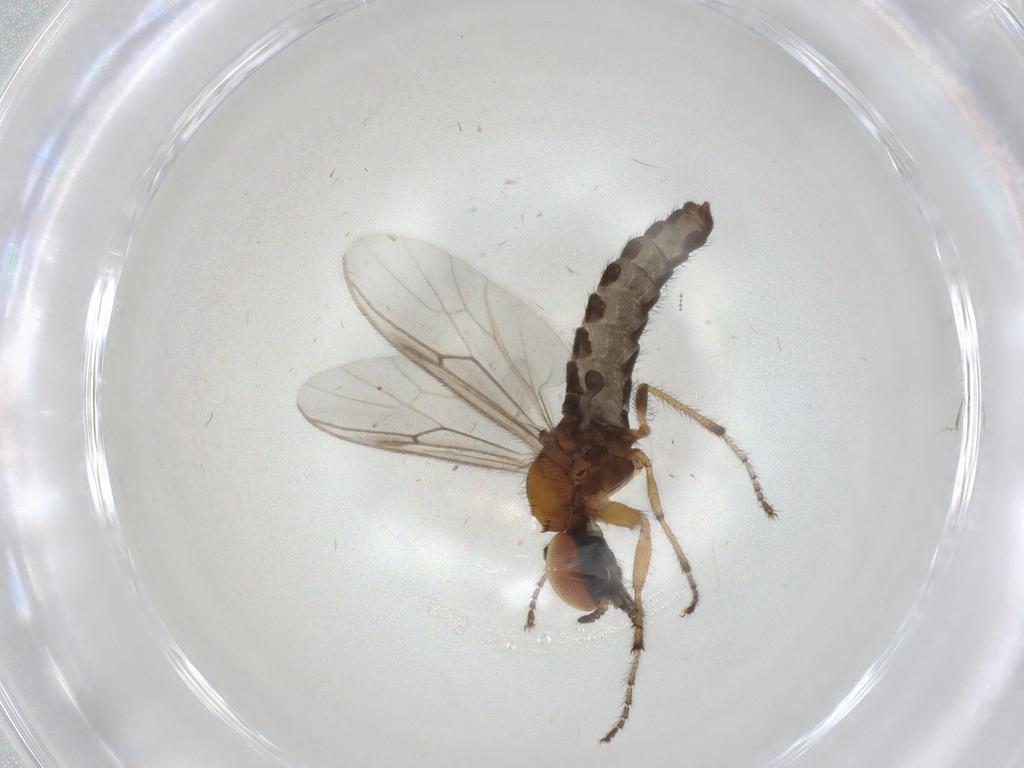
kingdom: Animalia
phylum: Arthropoda
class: Insecta
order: Diptera
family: Bibionidae
